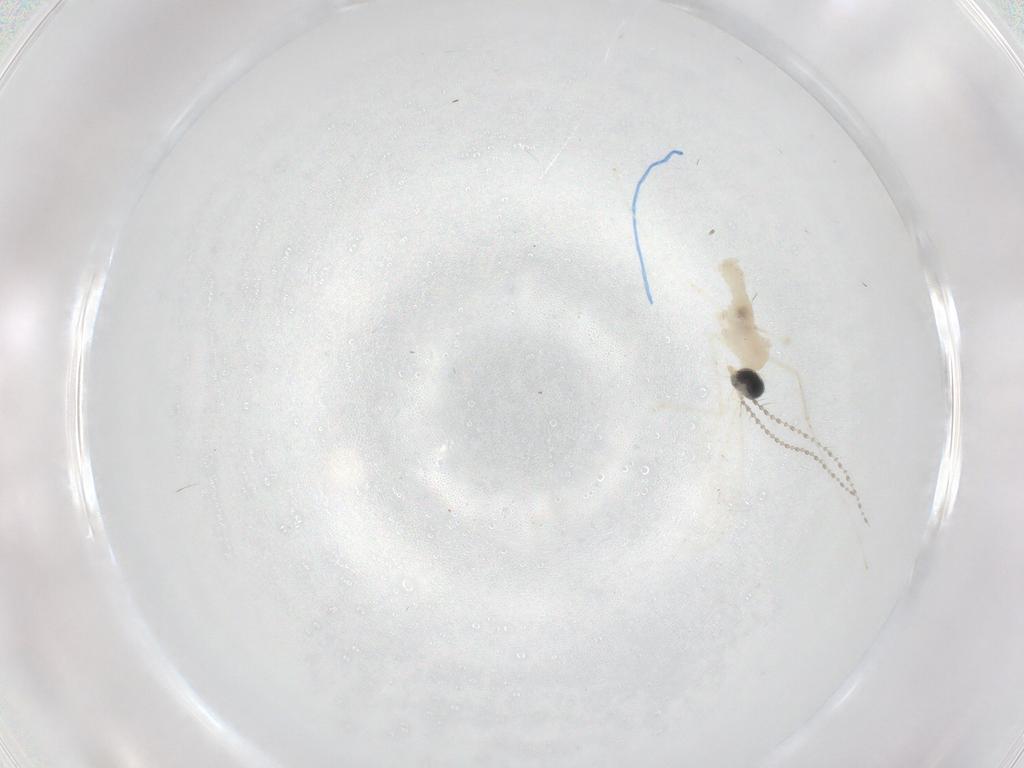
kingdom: Animalia
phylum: Arthropoda
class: Insecta
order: Diptera
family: Cecidomyiidae
